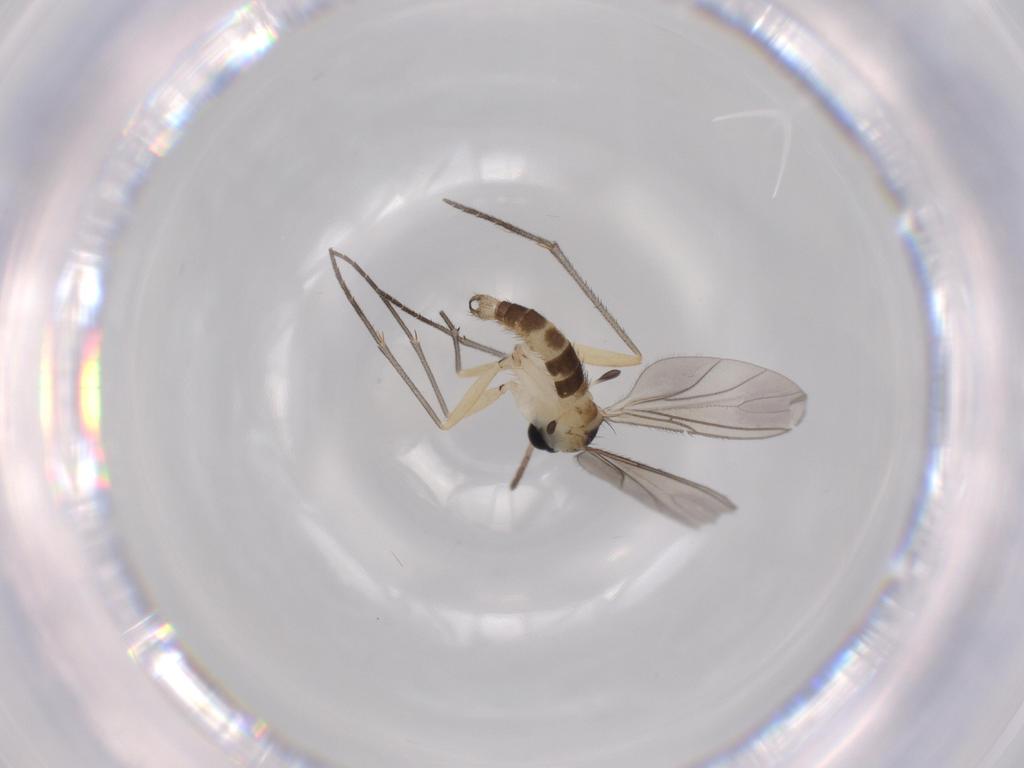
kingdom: Animalia
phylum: Arthropoda
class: Insecta
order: Diptera
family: Sciaridae
